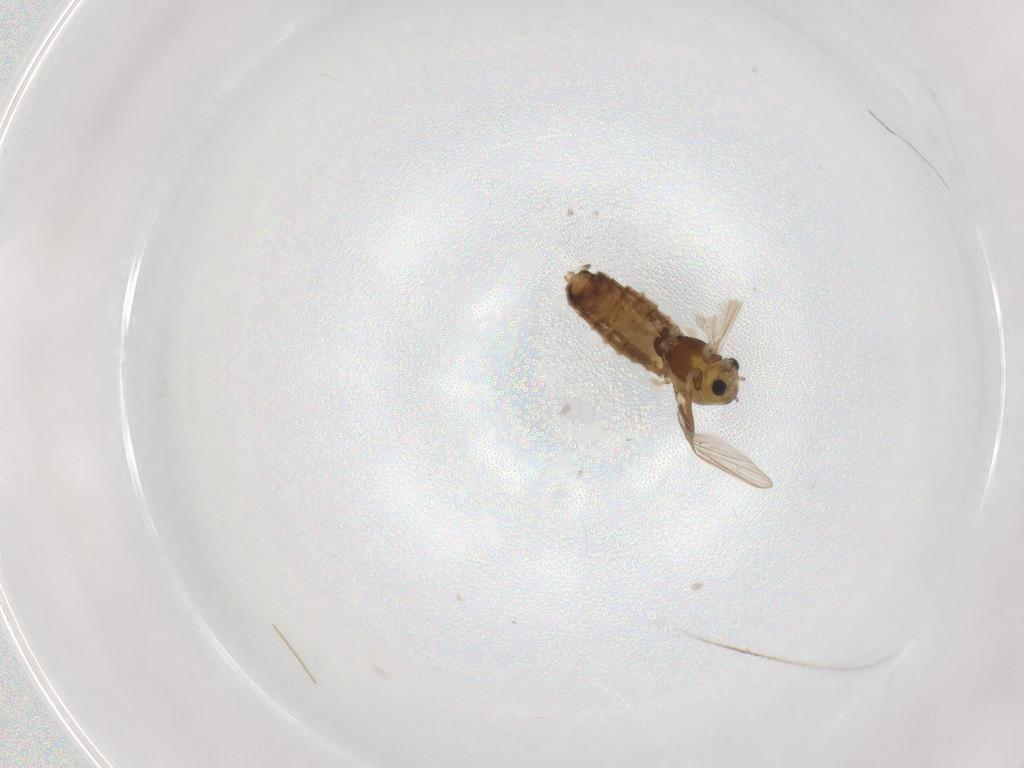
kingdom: Animalia
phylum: Arthropoda
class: Insecta
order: Diptera
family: Chironomidae
